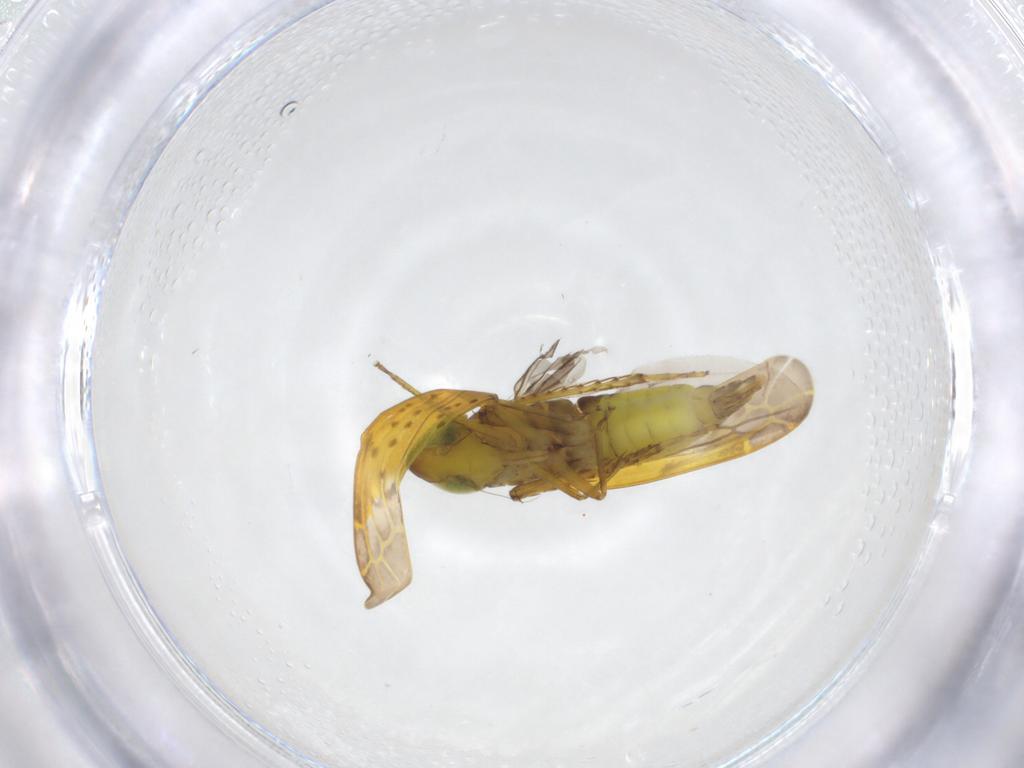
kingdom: Animalia
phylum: Arthropoda
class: Insecta
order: Hemiptera
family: Cicadellidae
